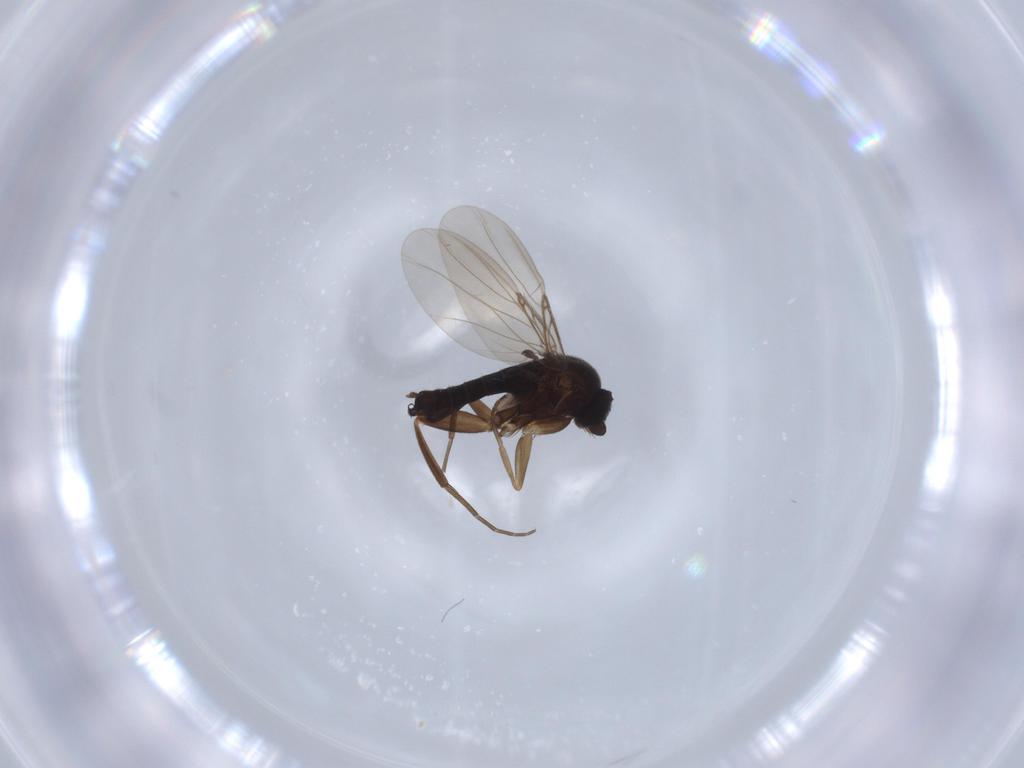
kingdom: Animalia
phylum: Arthropoda
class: Insecta
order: Diptera
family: Phoridae
